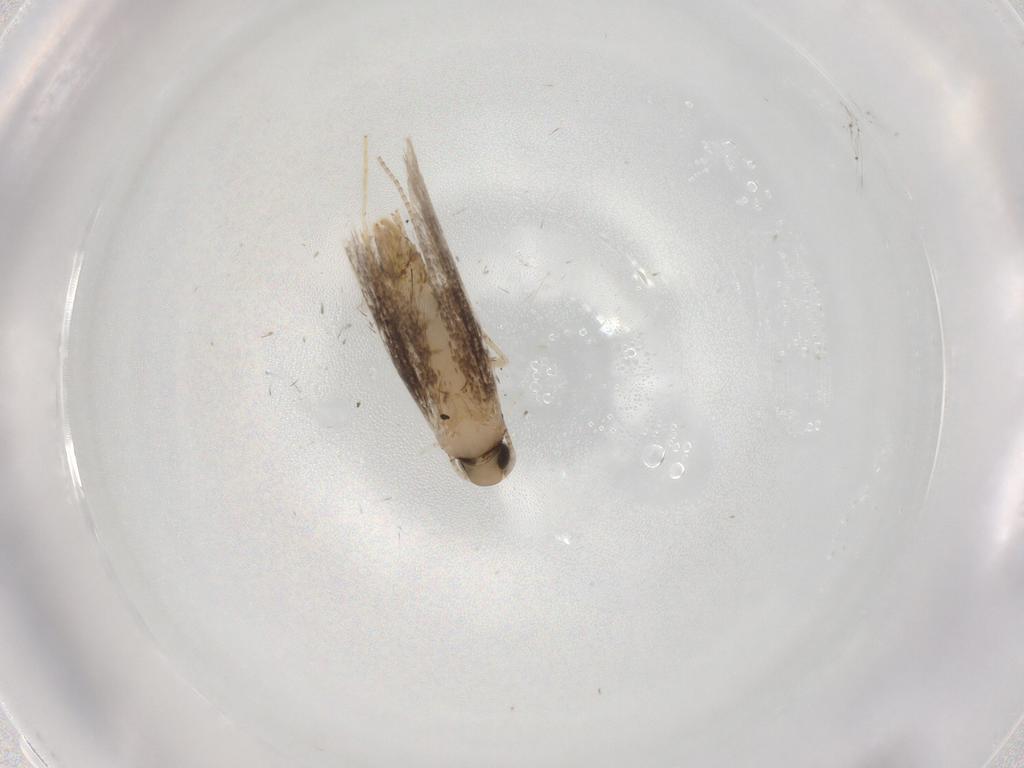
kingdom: Animalia
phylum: Arthropoda
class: Insecta
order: Lepidoptera
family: Gracillariidae
